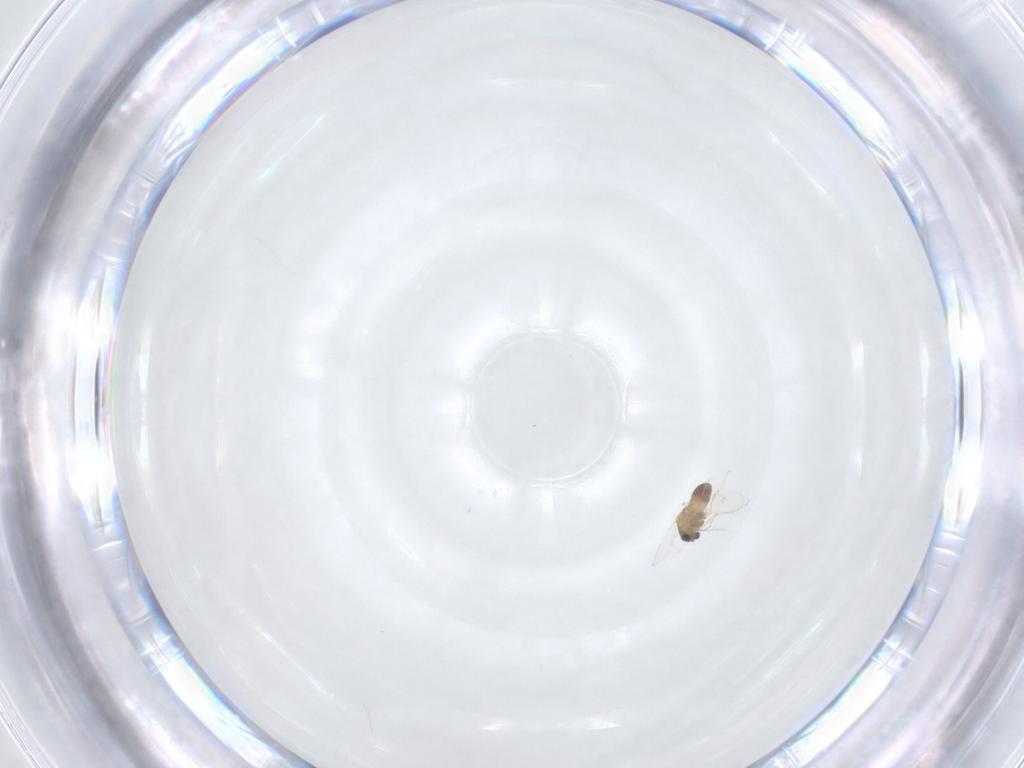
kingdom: Animalia
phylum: Arthropoda
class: Insecta
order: Diptera
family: Chironomidae
